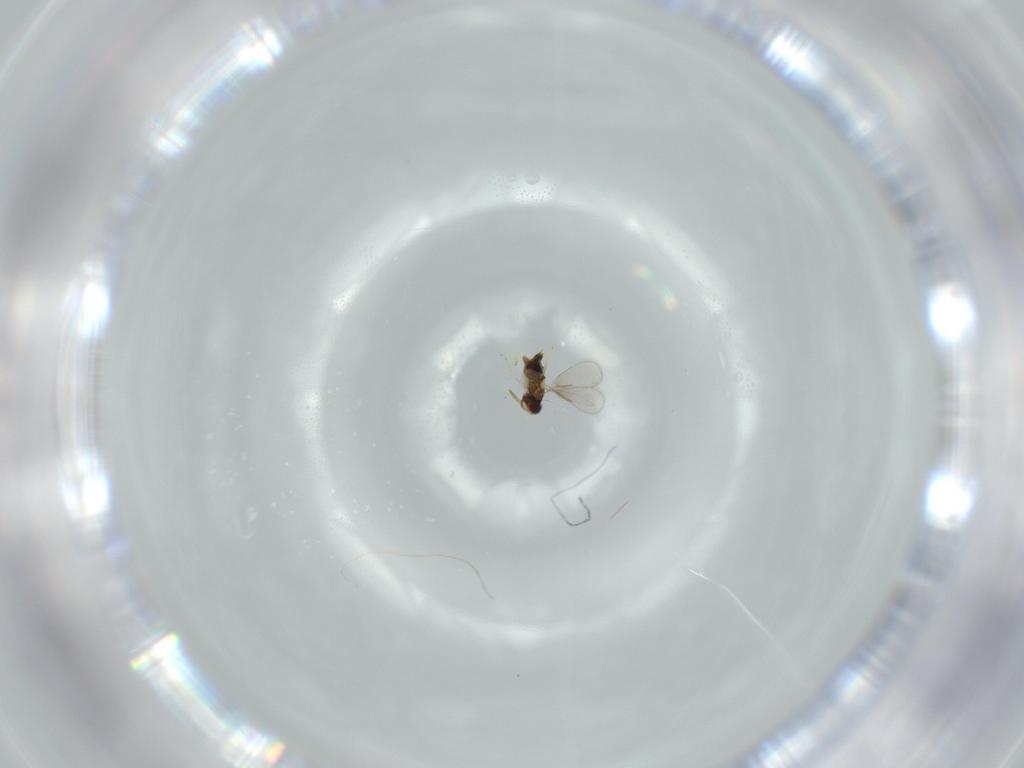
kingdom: Animalia
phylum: Arthropoda
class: Insecta
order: Hymenoptera
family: Aphelinidae
